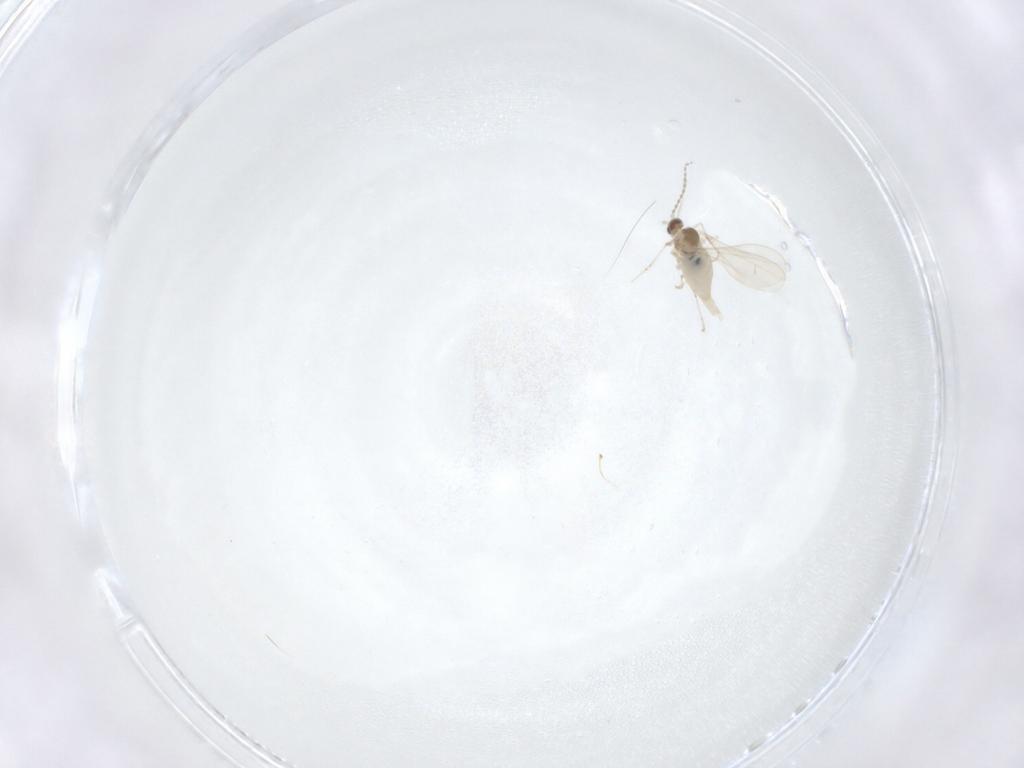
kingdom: Animalia
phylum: Arthropoda
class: Insecta
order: Diptera
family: Cecidomyiidae
